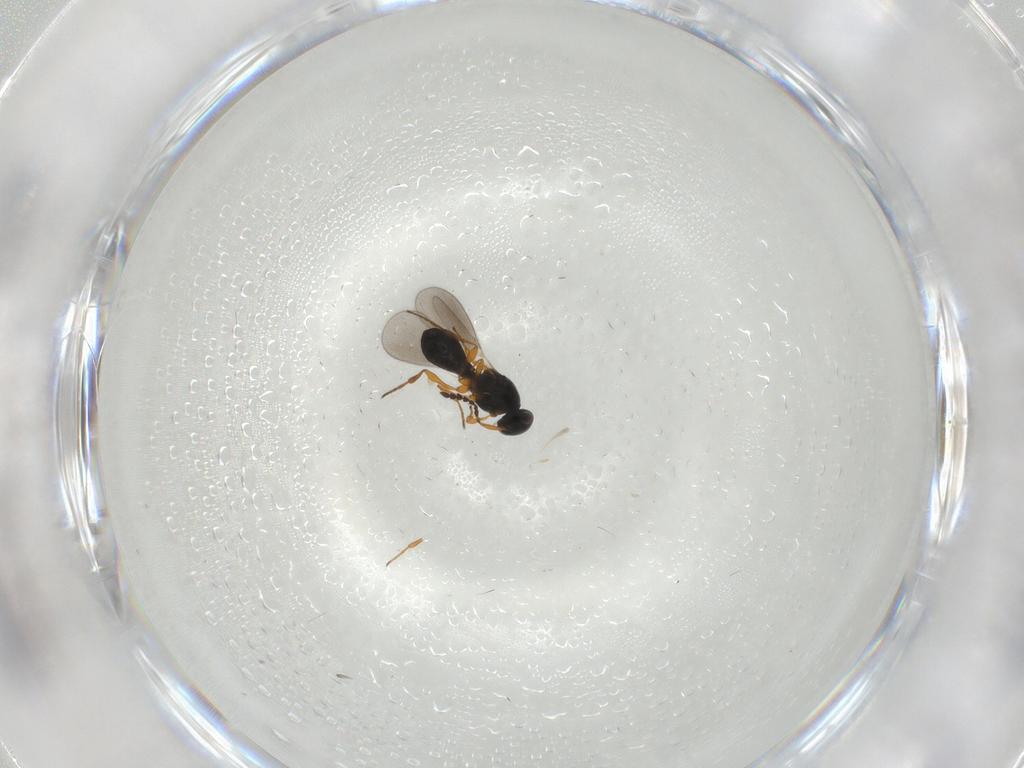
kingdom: Animalia
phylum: Arthropoda
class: Insecta
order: Hymenoptera
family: Platygastridae
